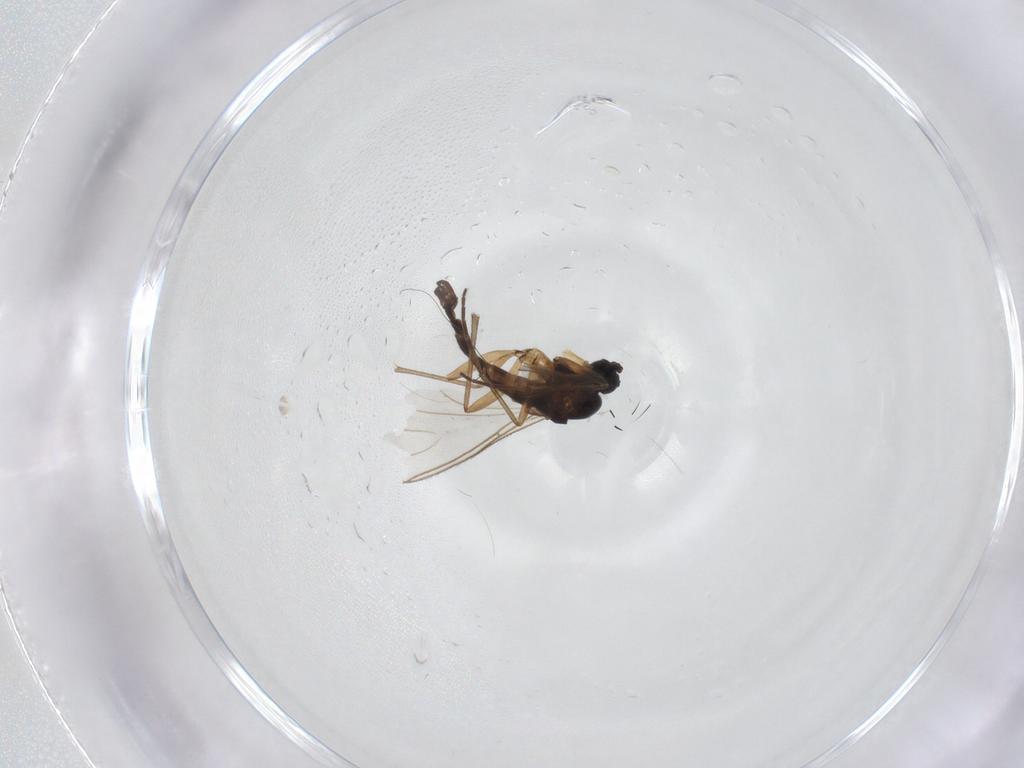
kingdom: Animalia
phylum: Arthropoda
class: Insecta
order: Diptera
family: Sciaridae
